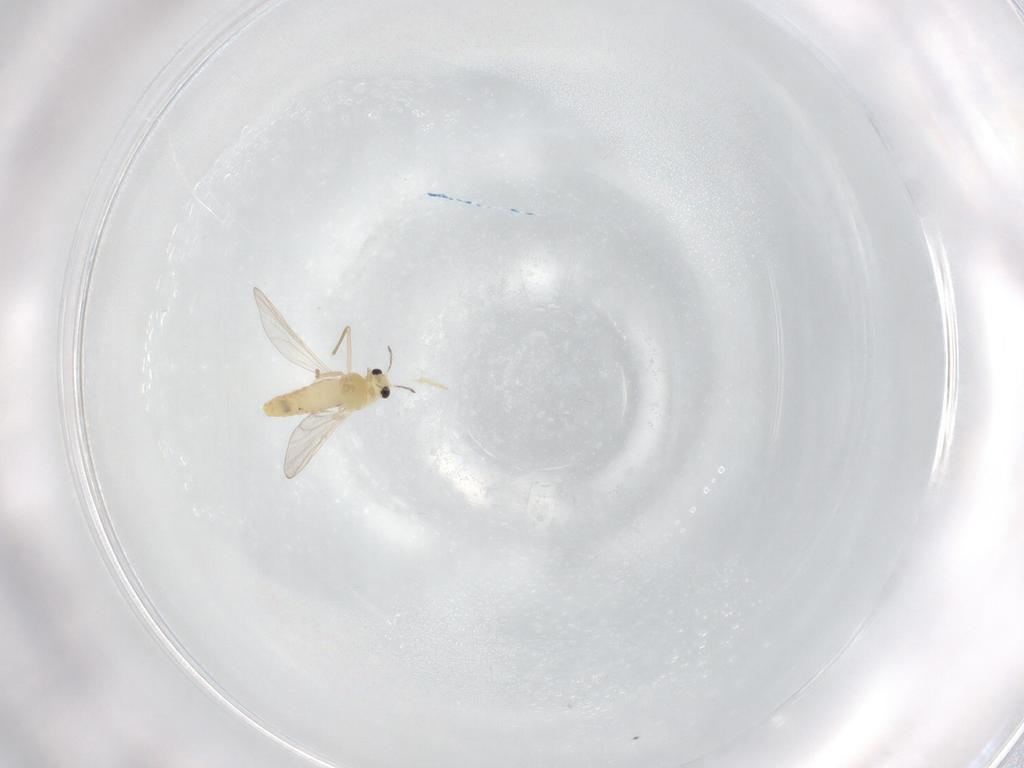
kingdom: Animalia
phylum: Arthropoda
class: Insecta
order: Diptera
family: Chironomidae
